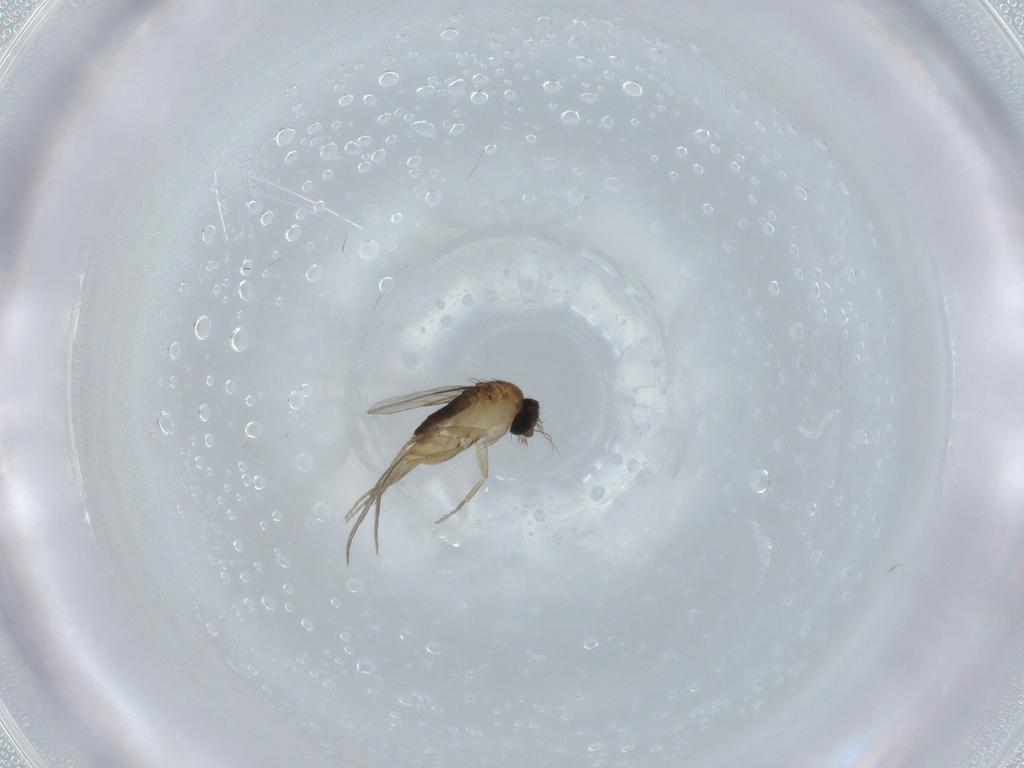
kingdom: Animalia
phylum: Arthropoda
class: Insecta
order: Diptera
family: Phoridae
